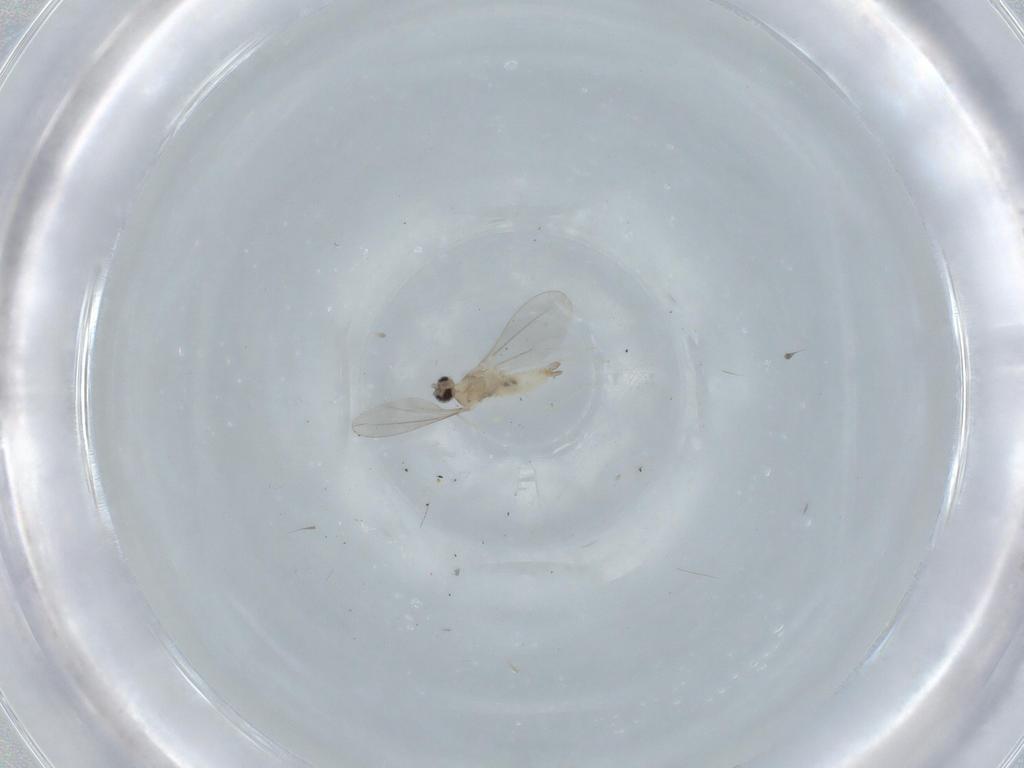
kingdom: Animalia
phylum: Arthropoda
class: Insecta
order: Diptera
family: Cecidomyiidae
